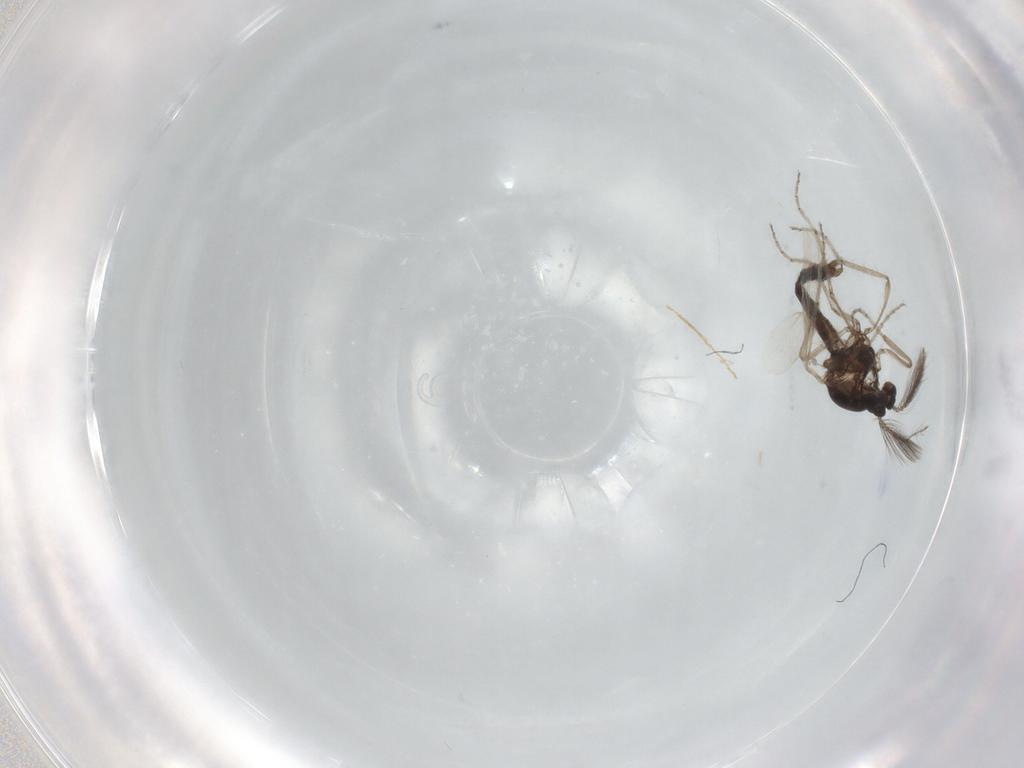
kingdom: Animalia
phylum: Arthropoda
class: Insecta
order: Diptera
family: Ceratopogonidae
